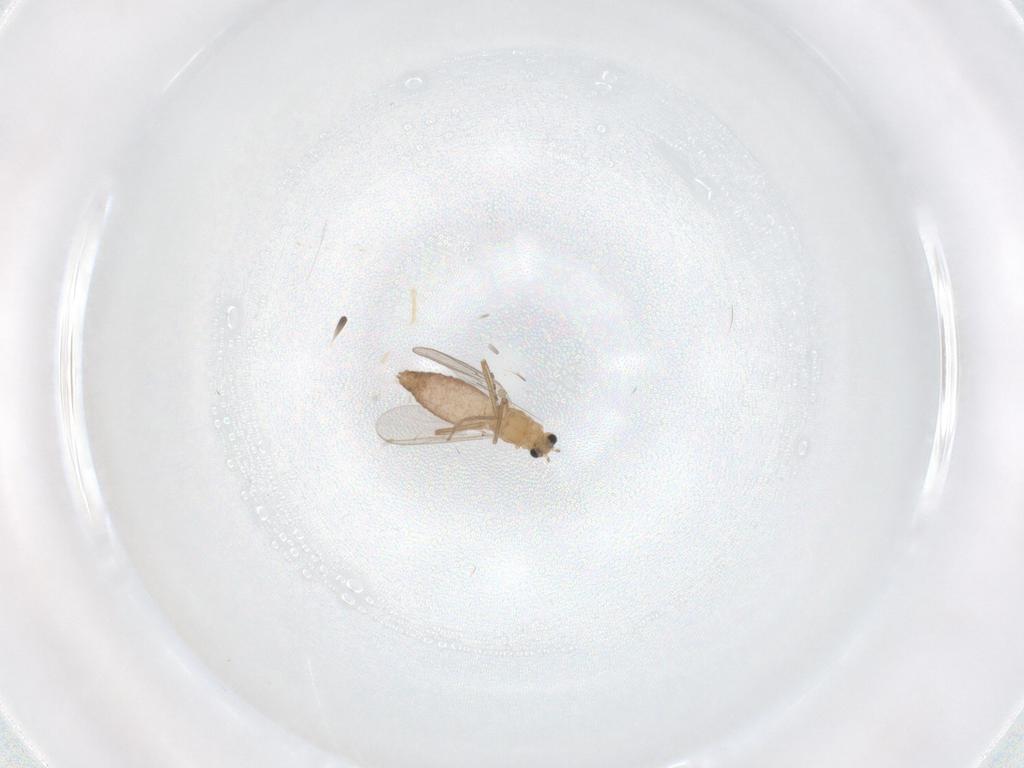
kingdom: Animalia
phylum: Arthropoda
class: Insecta
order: Diptera
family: Chironomidae
